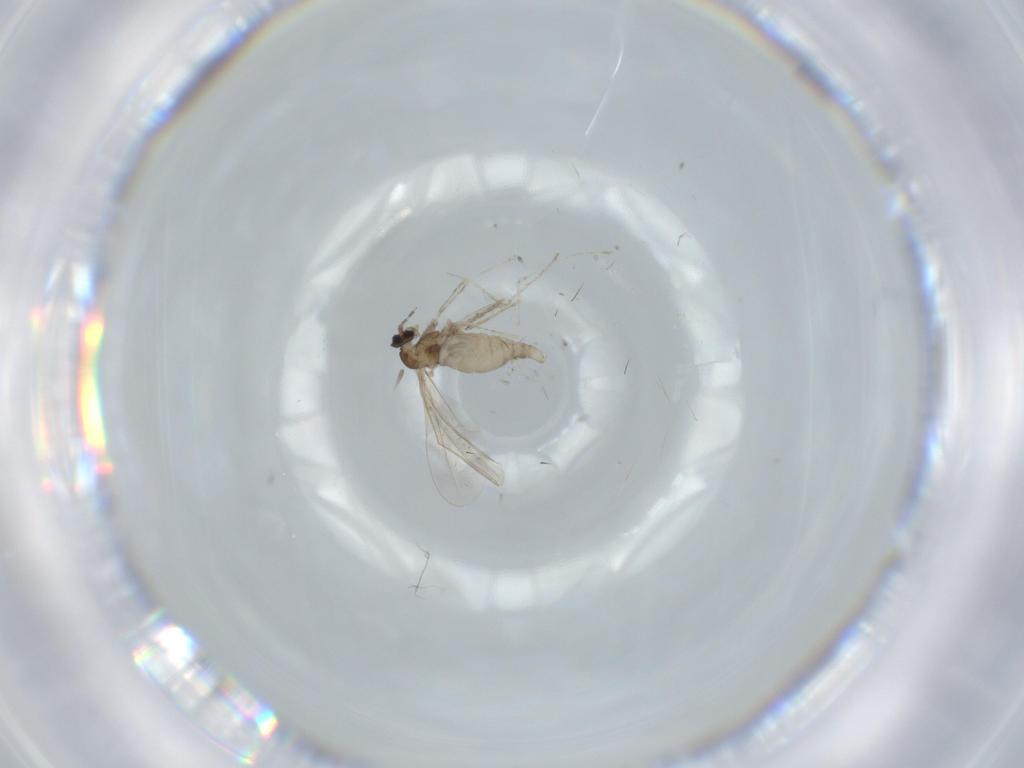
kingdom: Animalia
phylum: Arthropoda
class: Insecta
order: Diptera
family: Cecidomyiidae
